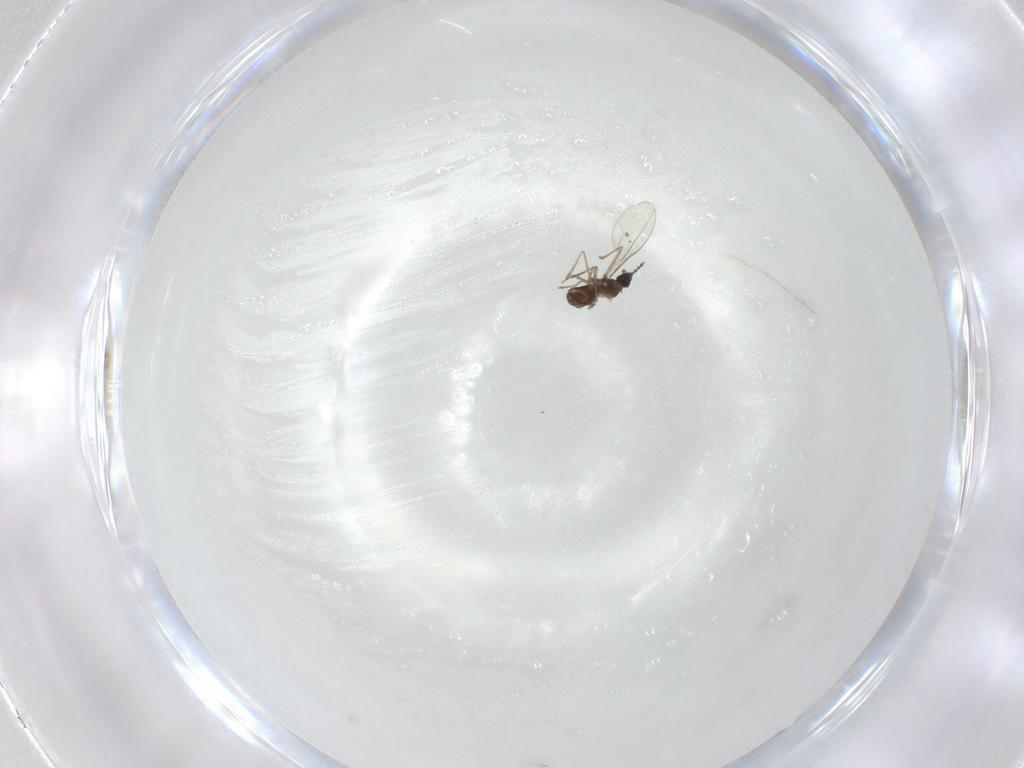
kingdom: Animalia
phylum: Arthropoda
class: Insecta
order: Diptera
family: Cecidomyiidae
